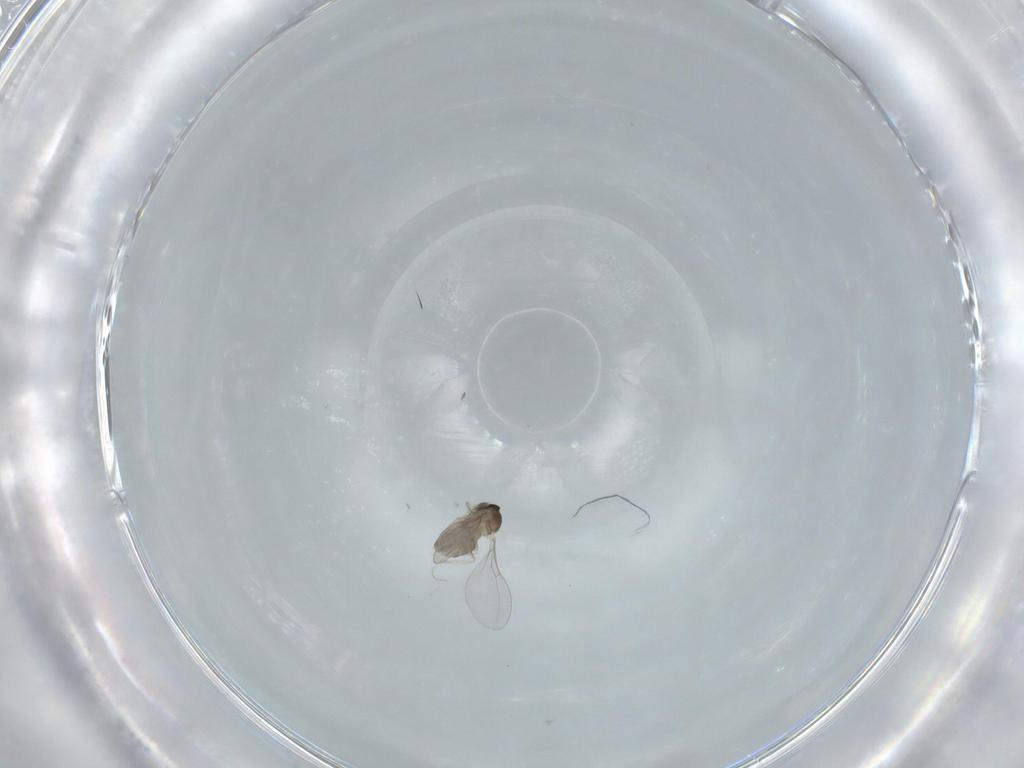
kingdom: Animalia
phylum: Arthropoda
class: Insecta
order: Diptera
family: Cecidomyiidae
